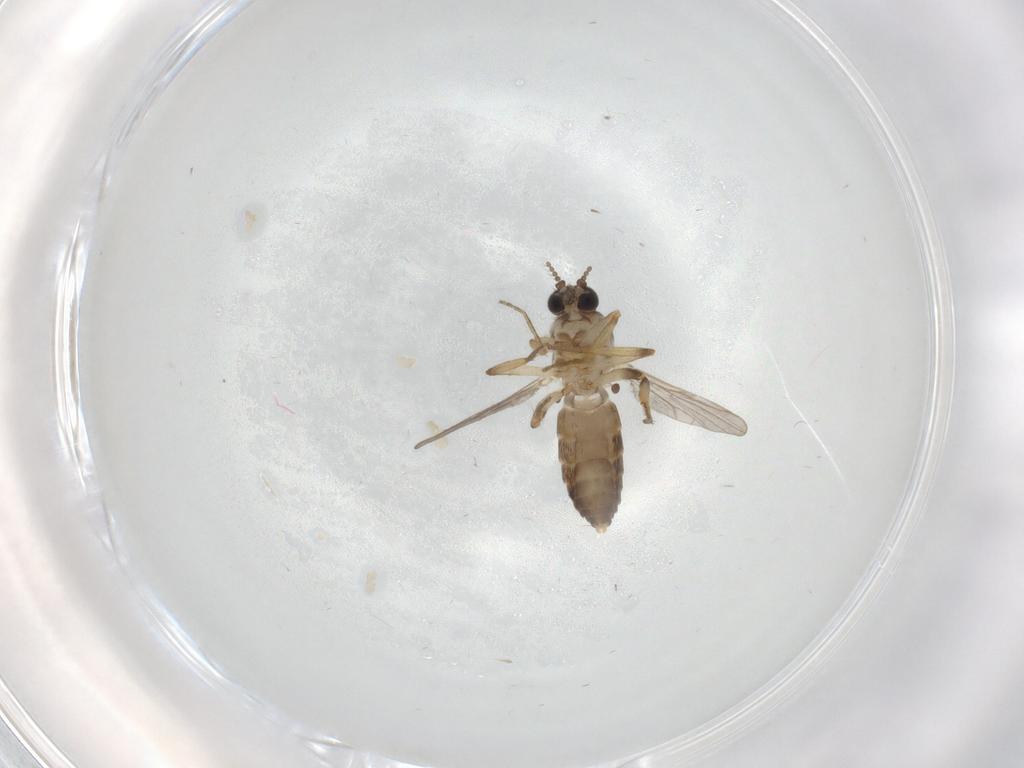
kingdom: Animalia
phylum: Arthropoda
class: Insecta
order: Diptera
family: Ceratopogonidae
